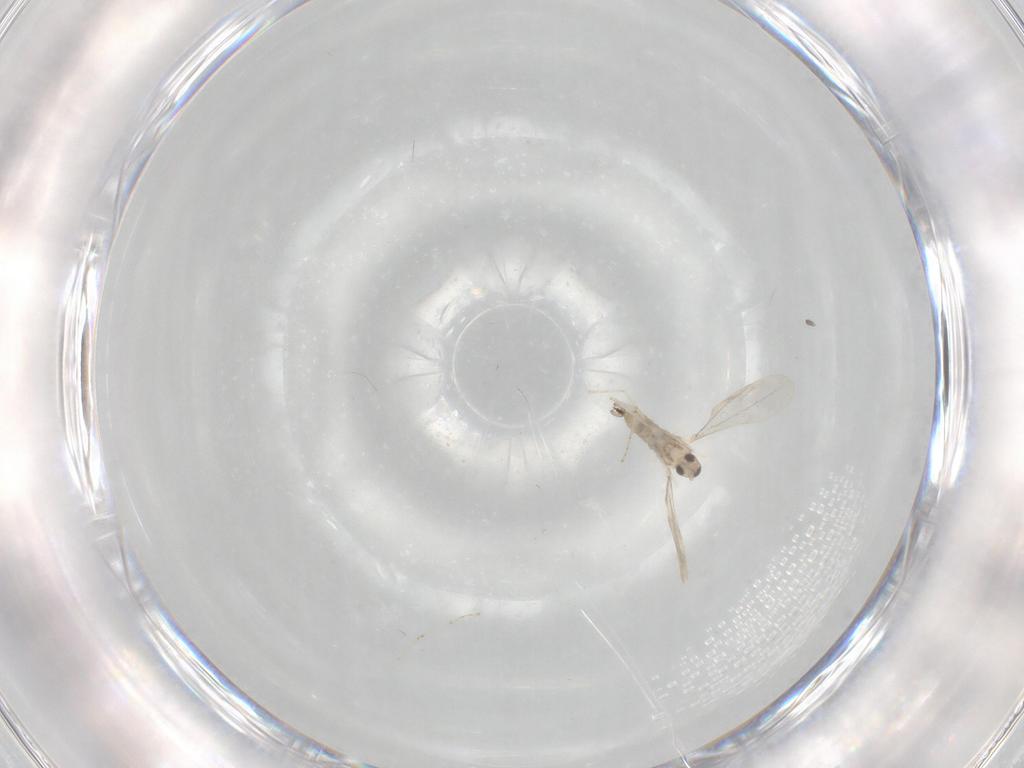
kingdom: Animalia
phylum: Arthropoda
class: Insecta
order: Diptera
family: Cecidomyiidae
